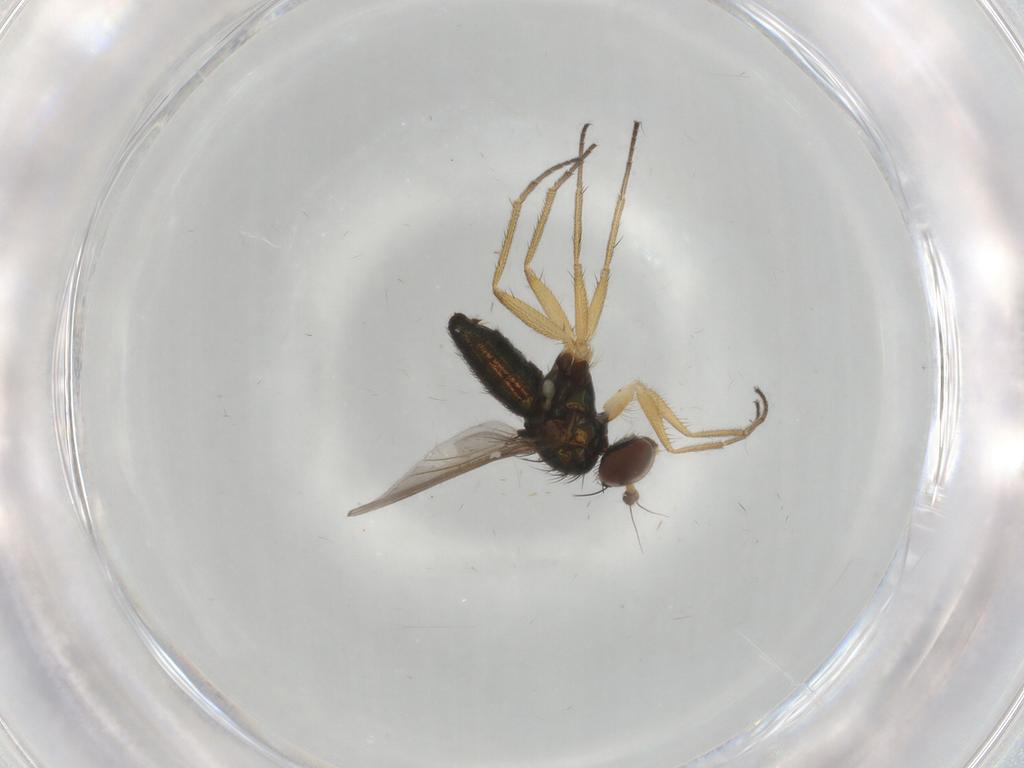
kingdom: Animalia
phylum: Arthropoda
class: Insecta
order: Diptera
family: Dolichopodidae
